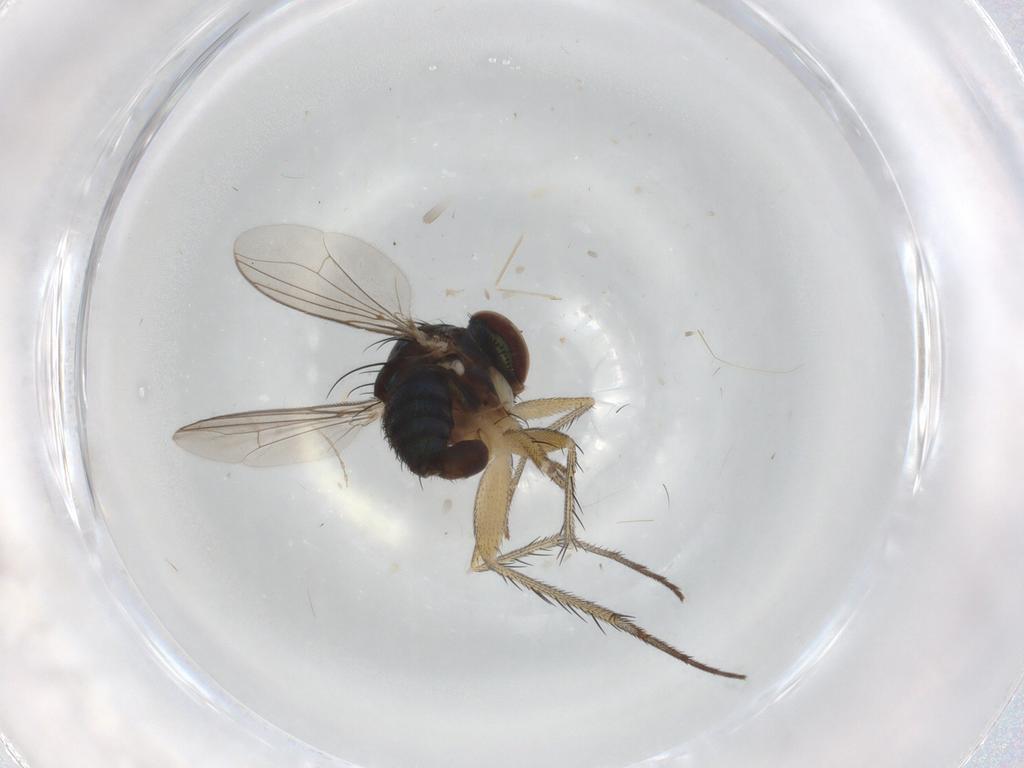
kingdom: Animalia
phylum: Arthropoda
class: Insecta
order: Diptera
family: Dolichopodidae
